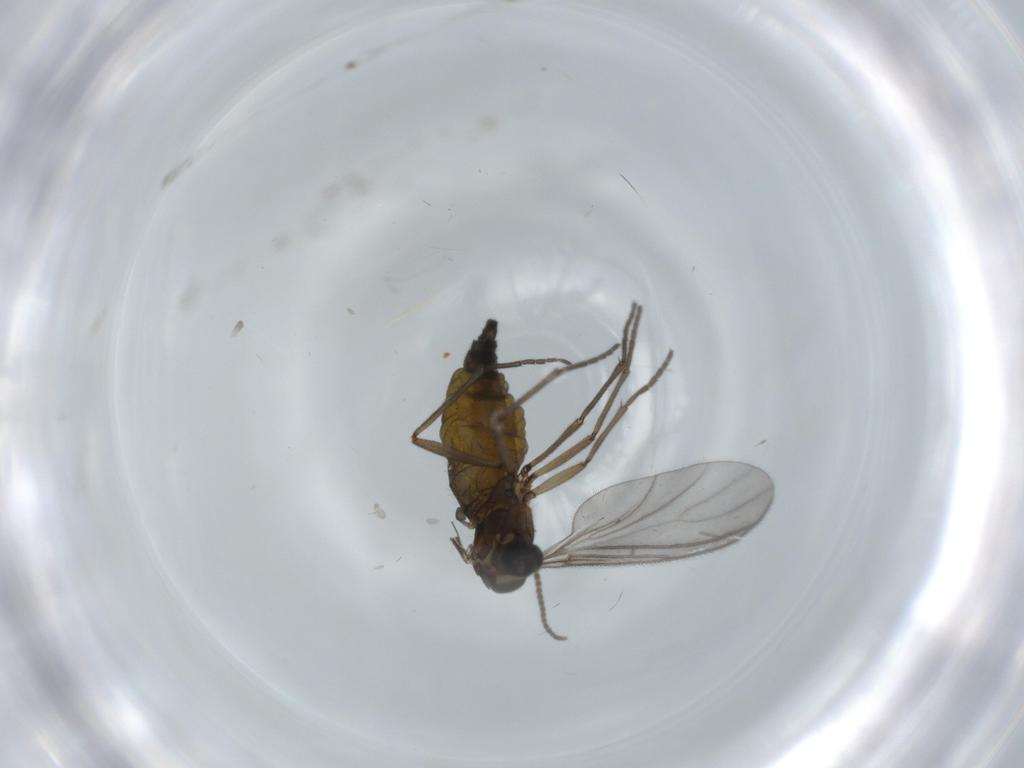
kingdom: Animalia
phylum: Arthropoda
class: Insecta
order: Diptera
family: Sciaridae
